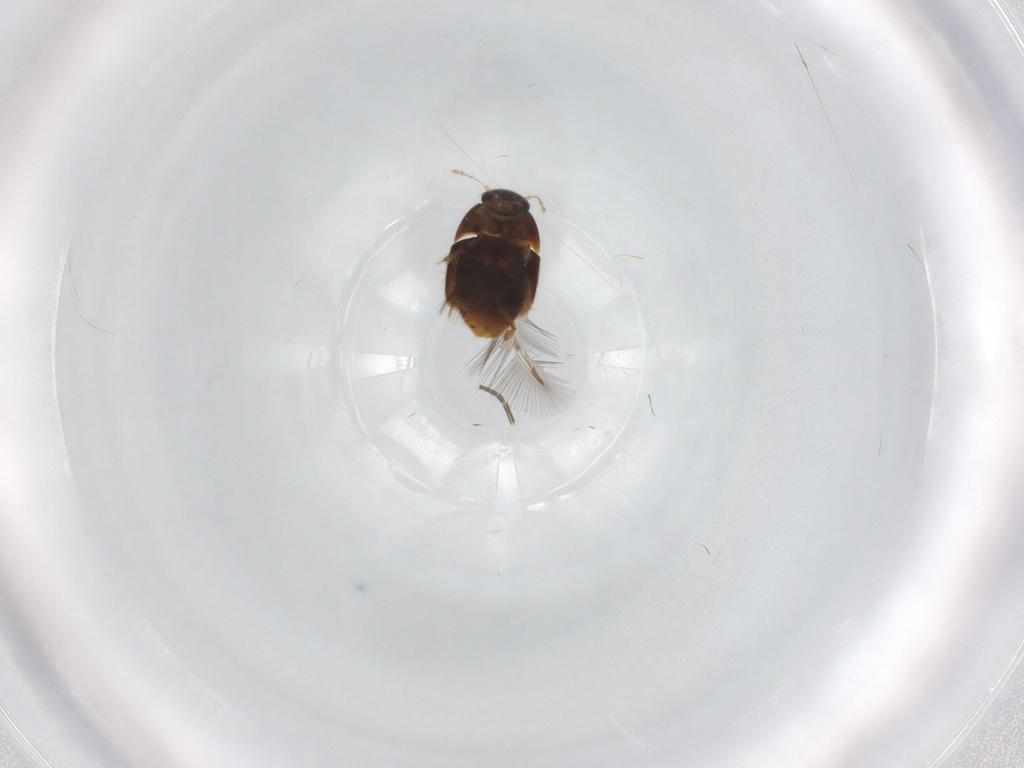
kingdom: Animalia
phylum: Arthropoda
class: Insecta
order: Coleoptera
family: Ptiliidae
